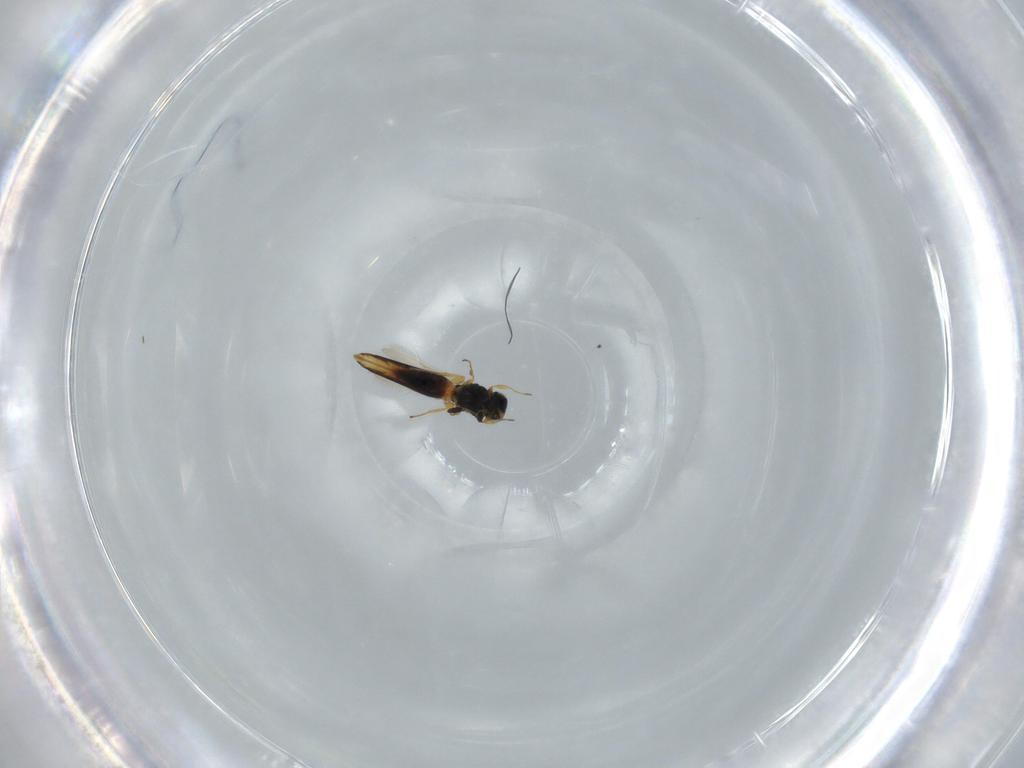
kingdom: Animalia
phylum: Arthropoda
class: Insecta
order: Hymenoptera
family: Scelionidae
